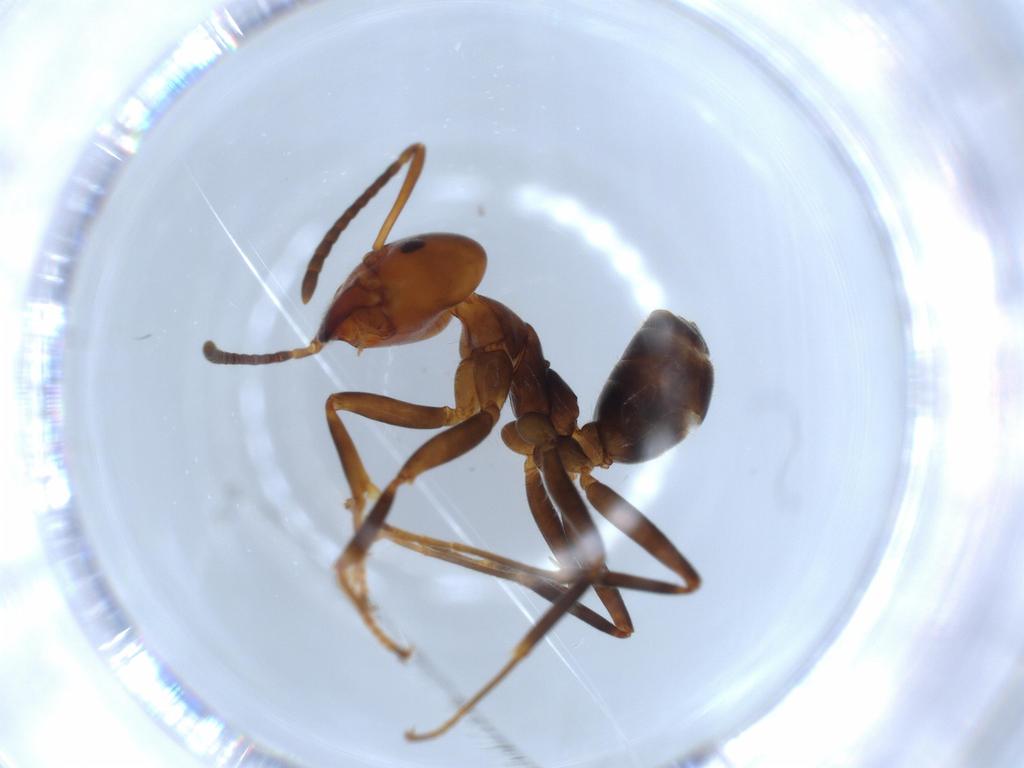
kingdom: Animalia
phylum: Arthropoda
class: Insecta
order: Hymenoptera
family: Formicidae
